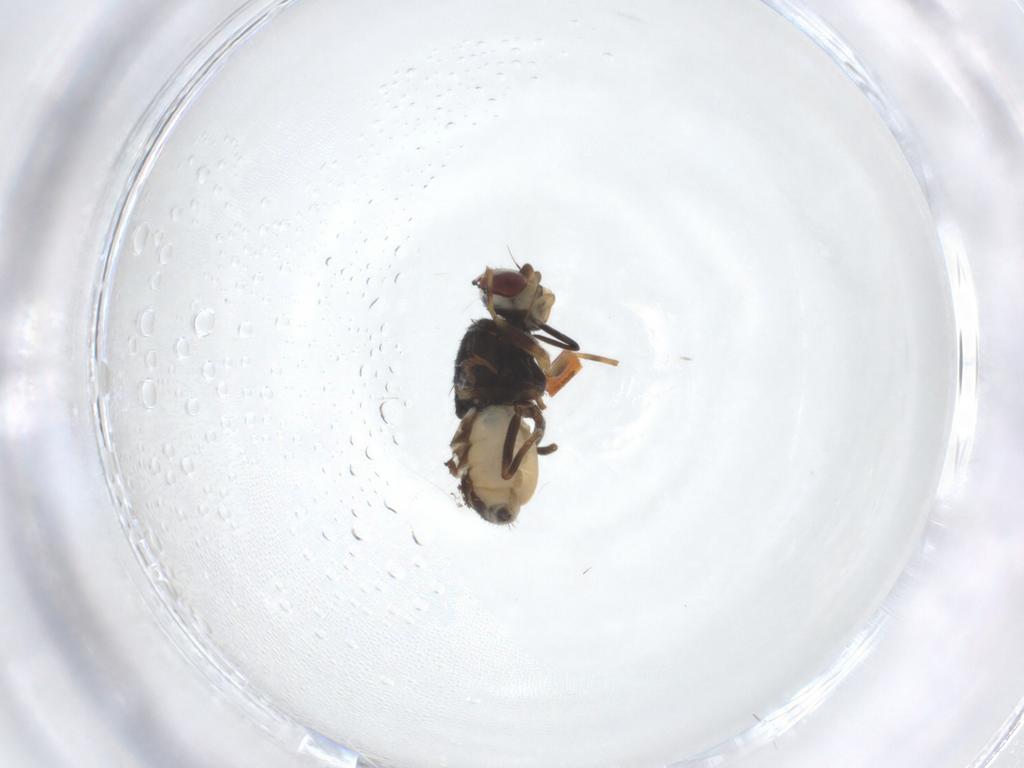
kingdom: Animalia
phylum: Arthropoda
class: Insecta
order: Diptera
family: Chloropidae
